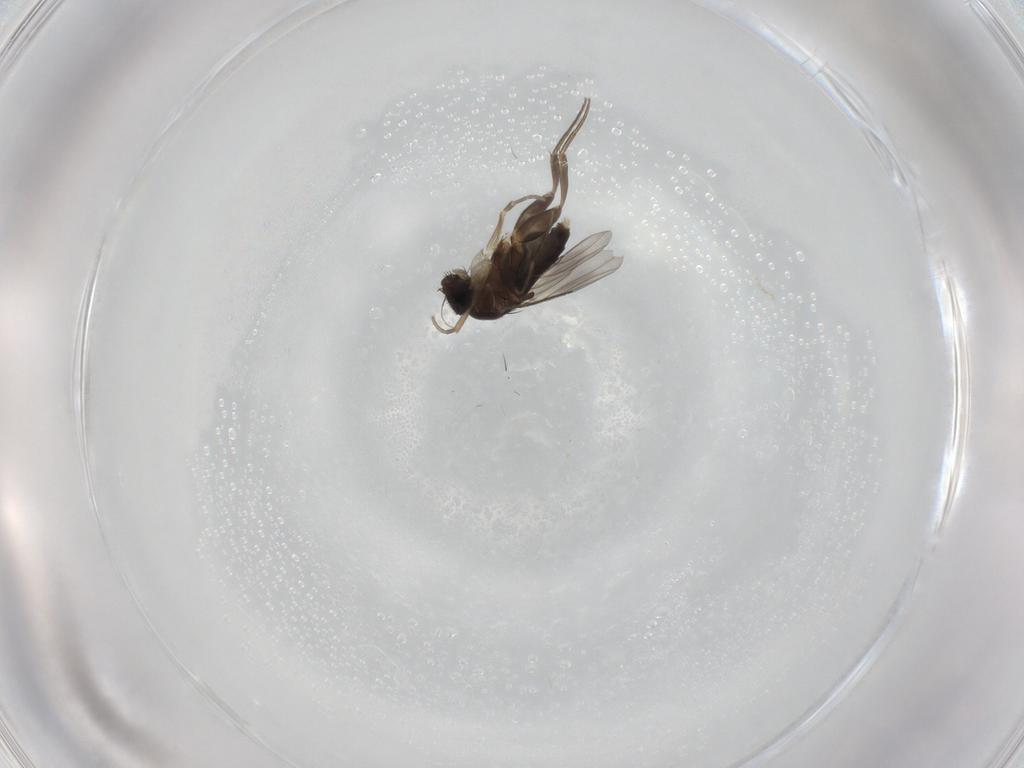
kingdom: Animalia
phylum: Arthropoda
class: Insecta
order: Diptera
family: Phoridae
